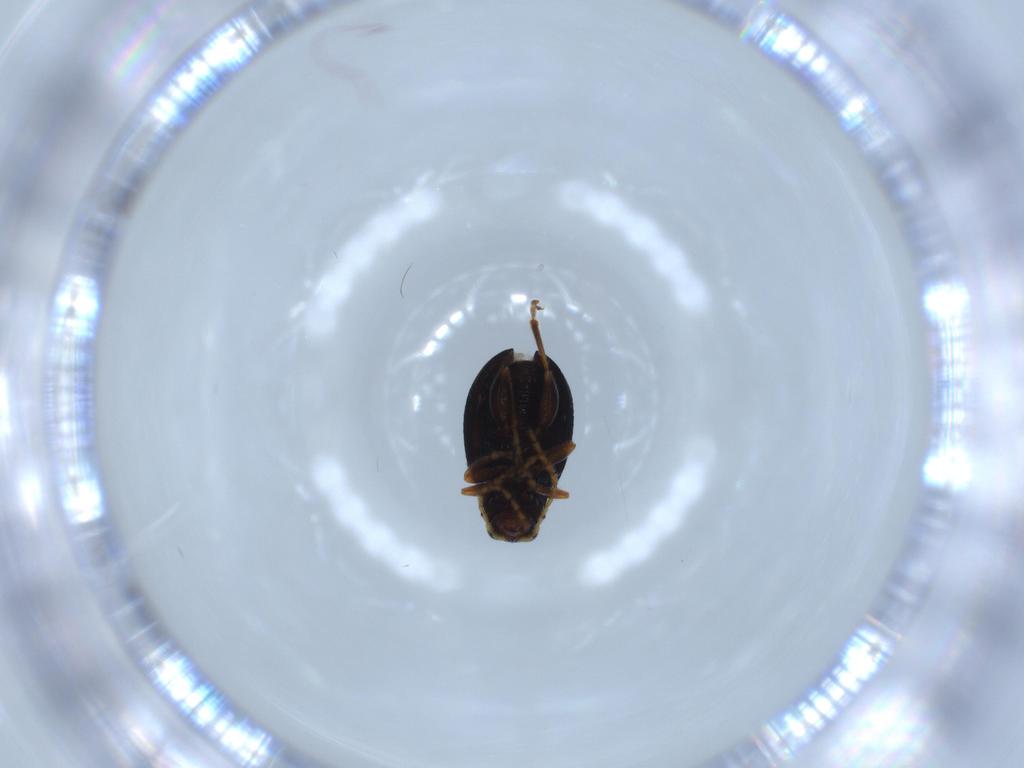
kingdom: Animalia
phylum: Arthropoda
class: Insecta
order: Coleoptera
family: Chrysomelidae
